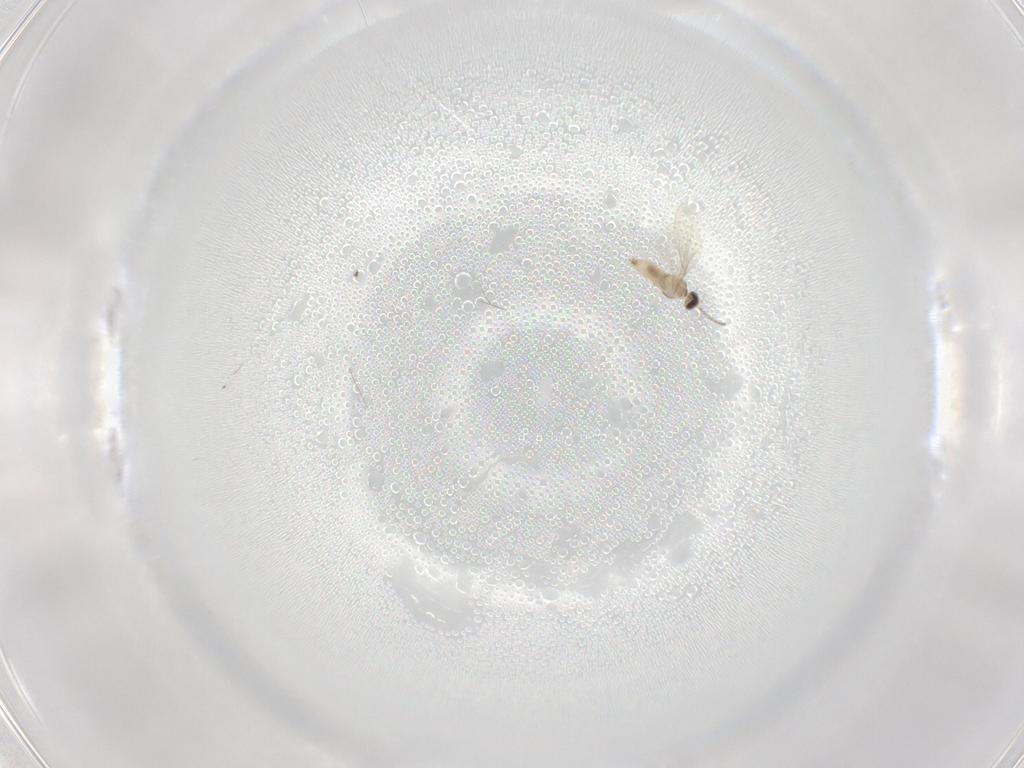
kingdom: Animalia
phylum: Arthropoda
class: Insecta
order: Diptera
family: Cecidomyiidae
